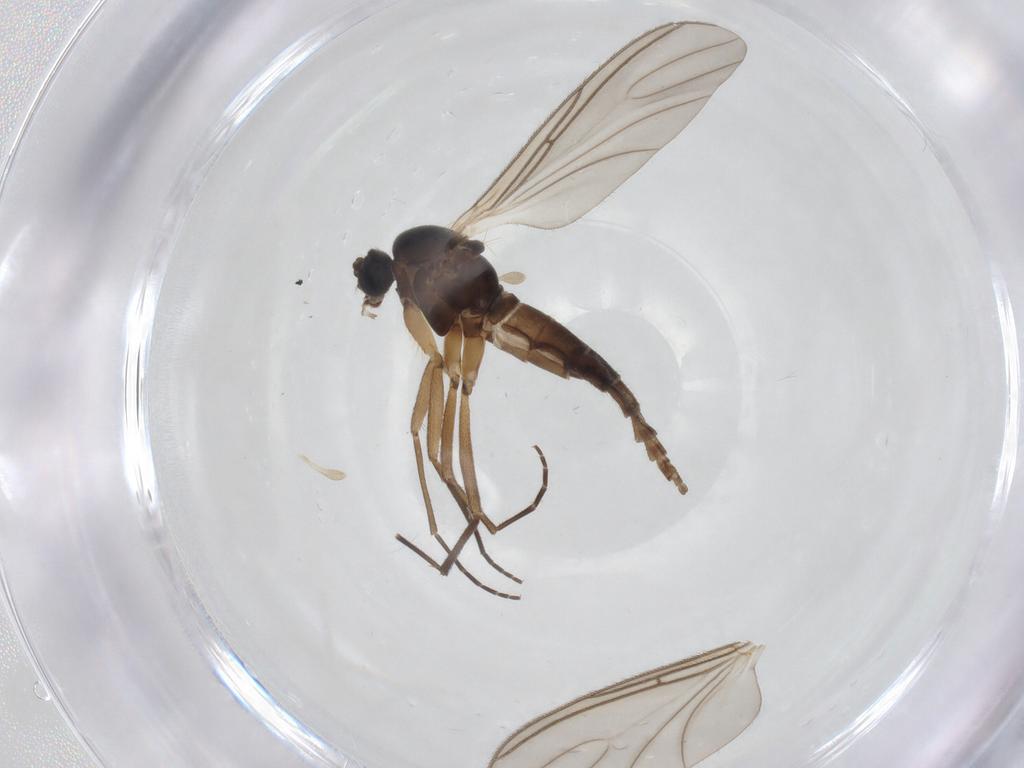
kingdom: Animalia
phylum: Arthropoda
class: Insecta
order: Diptera
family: Sciaridae
